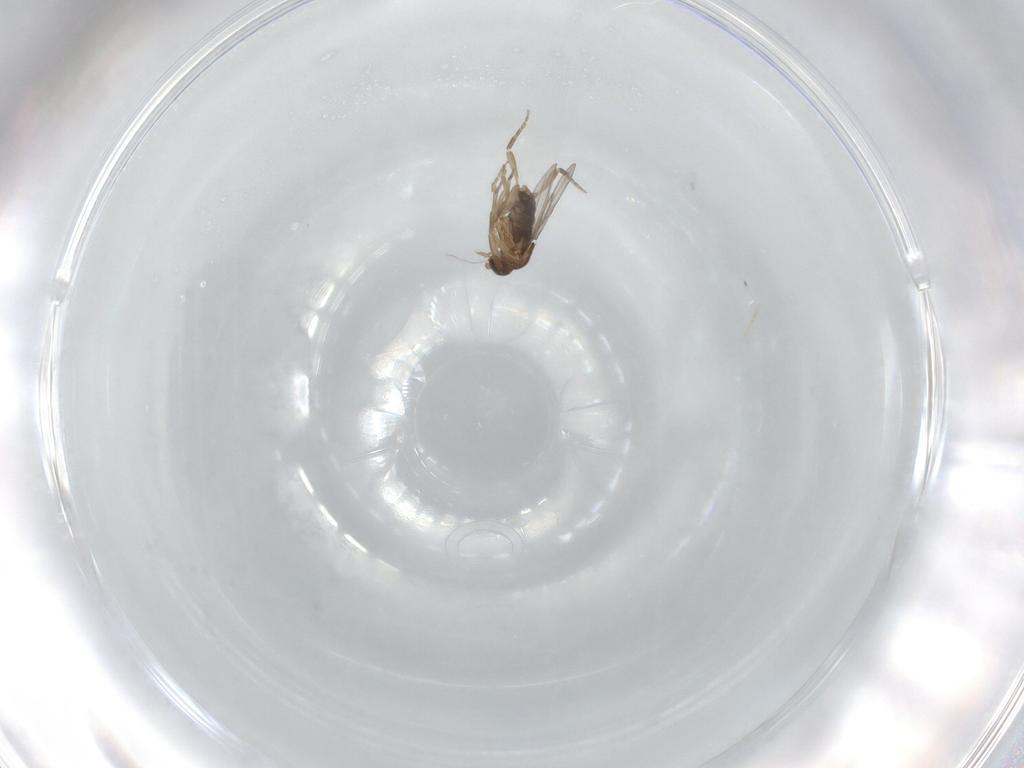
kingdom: Animalia
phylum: Arthropoda
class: Insecta
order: Diptera
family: Phoridae
